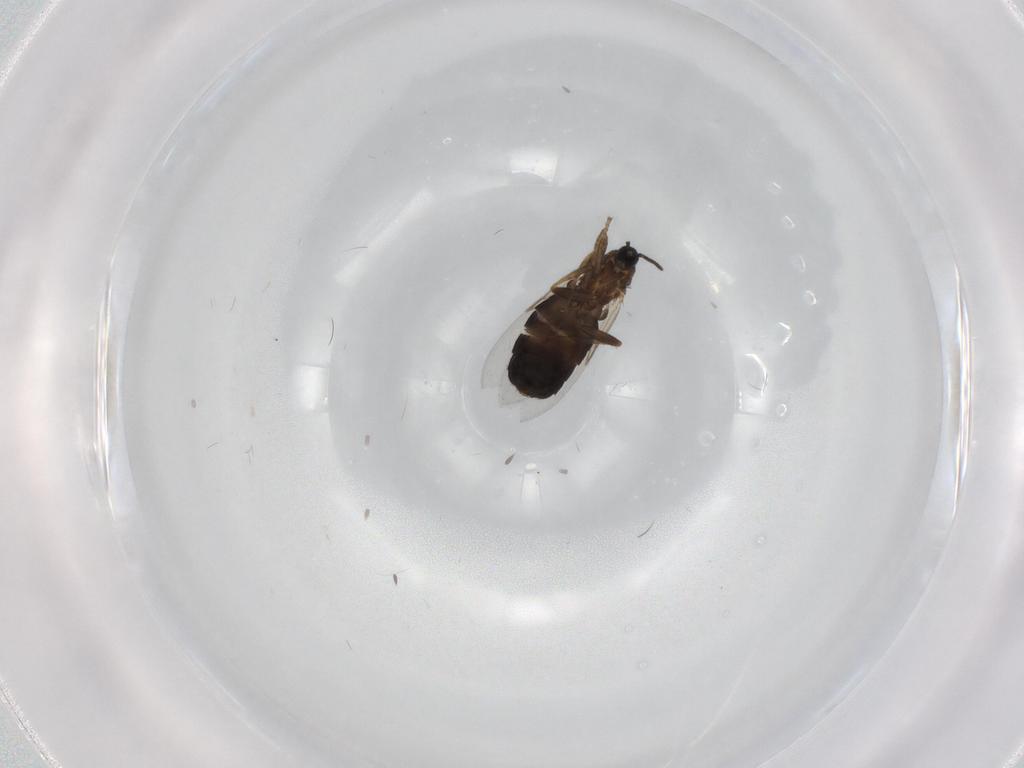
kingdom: Animalia
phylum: Arthropoda
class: Insecta
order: Diptera
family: Scatopsidae
